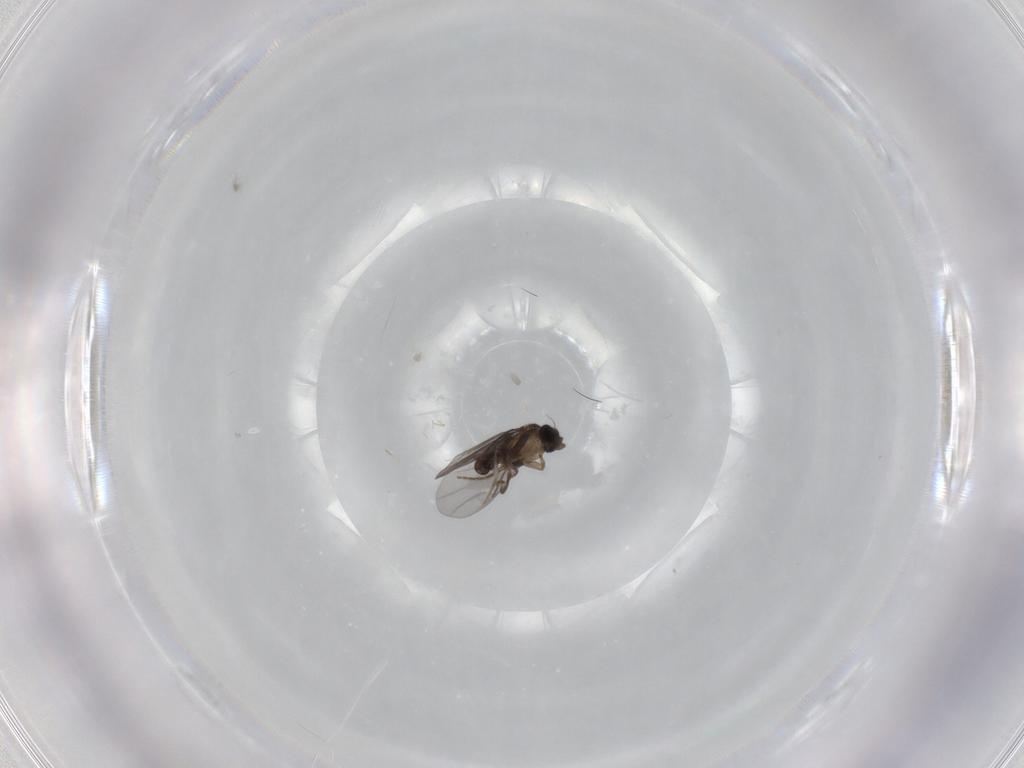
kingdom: Animalia
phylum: Arthropoda
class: Insecta
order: Diptera
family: Cecidomyiidae
